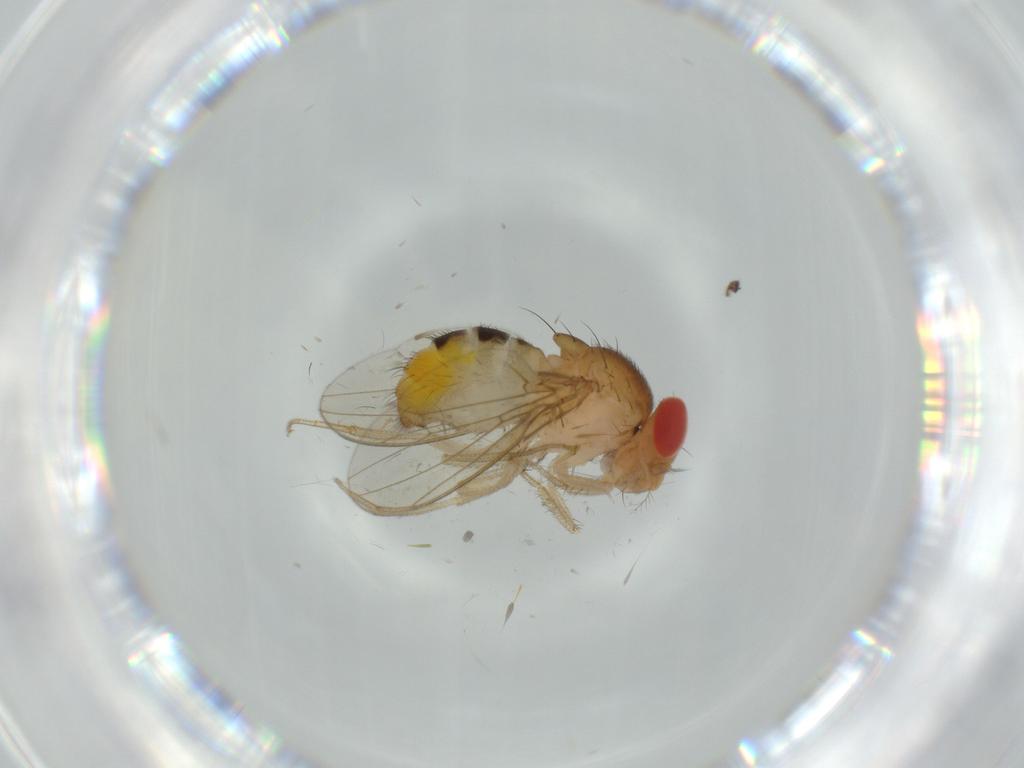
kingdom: Animalia
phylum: Arthropoda
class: Insecta
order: Diptera
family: Drosophilidae
